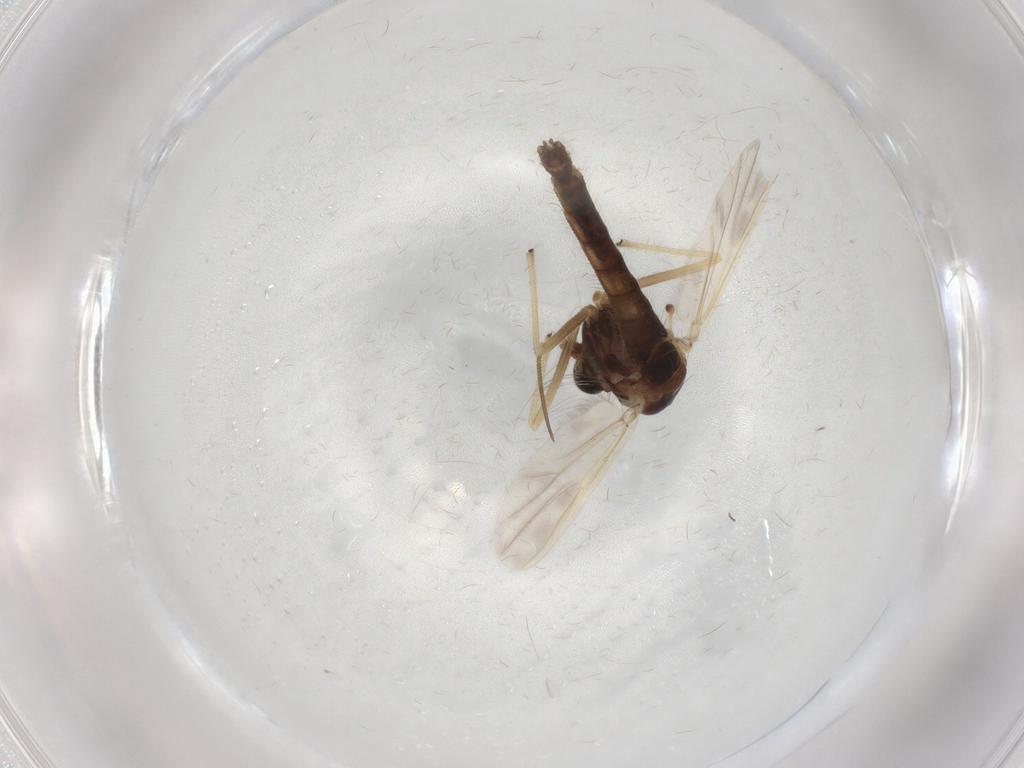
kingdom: Animalia
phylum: Arthropoda
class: Insecta
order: Diptera
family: Chironomidae
